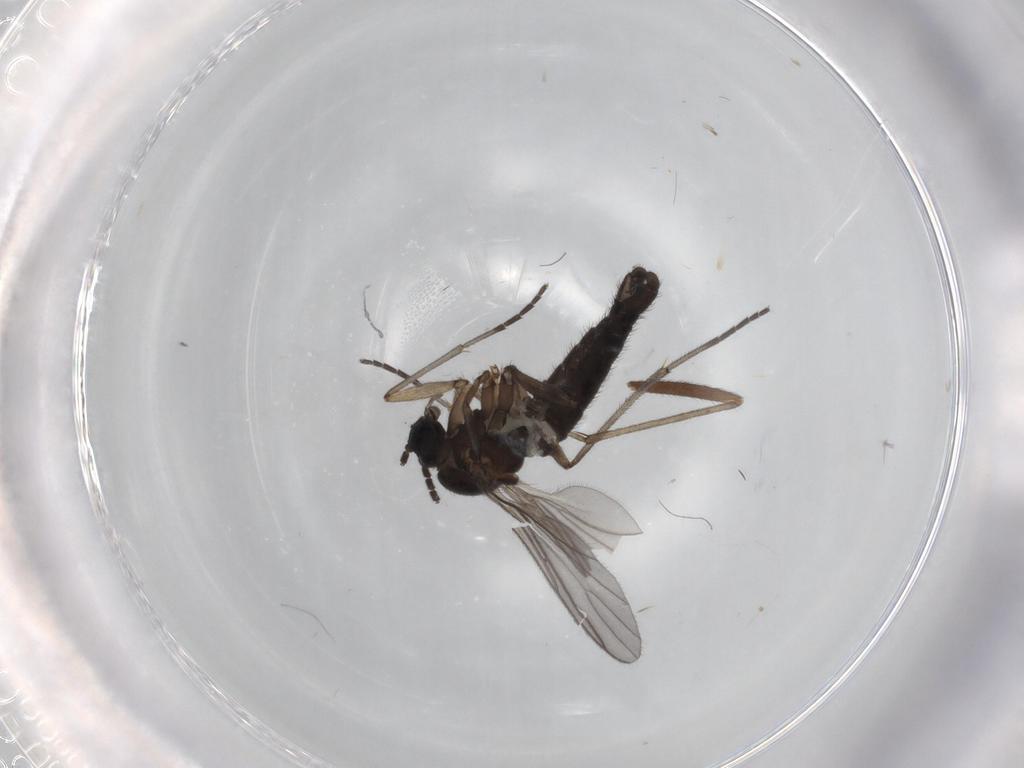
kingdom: Animalia
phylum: Arthropoda
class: Insecta
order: Diptera
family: Sciaridae
